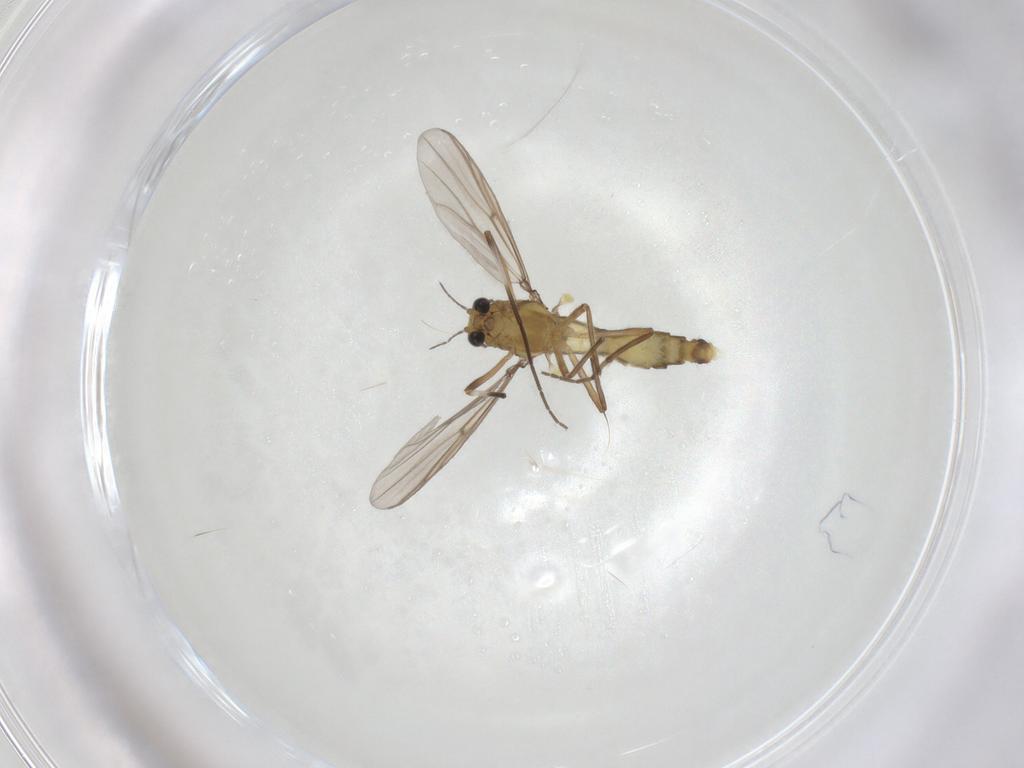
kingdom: Animalia
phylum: Arthropoda
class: Insecta
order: Diptera
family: Chironomidae
